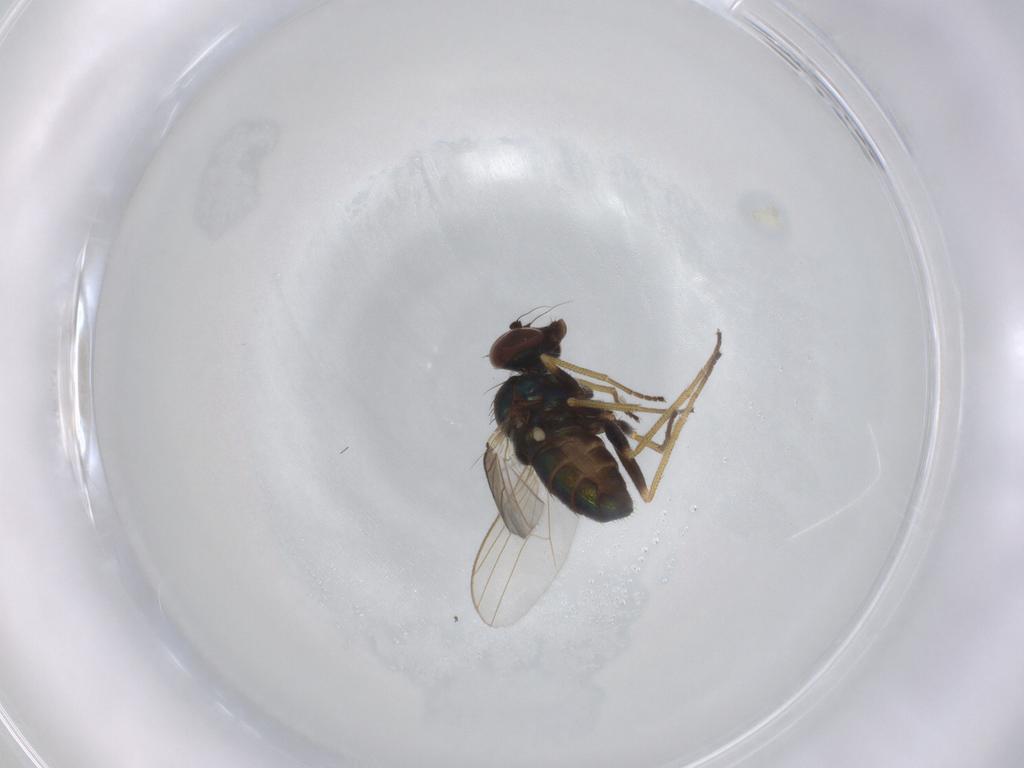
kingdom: Animalia
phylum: Arthropoda
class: Insecta
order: Diptera
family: Dolichopodidae
